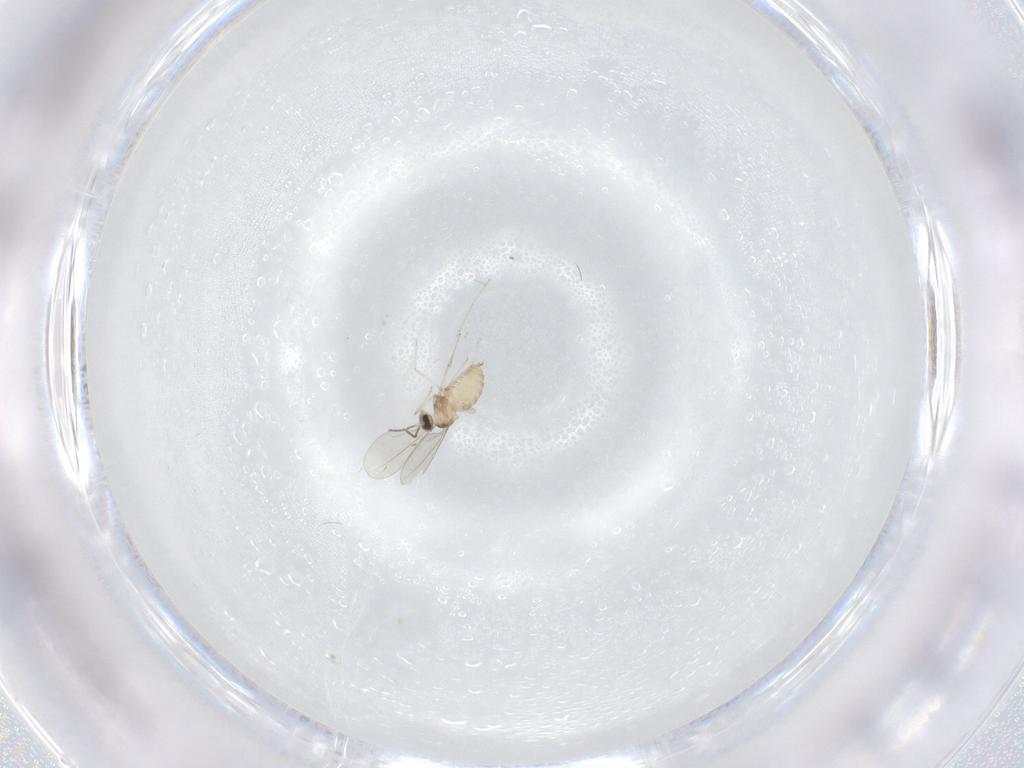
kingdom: Animalia
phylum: Arthropoda
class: Insecta
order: Diptera
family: Cecidomyiidae
